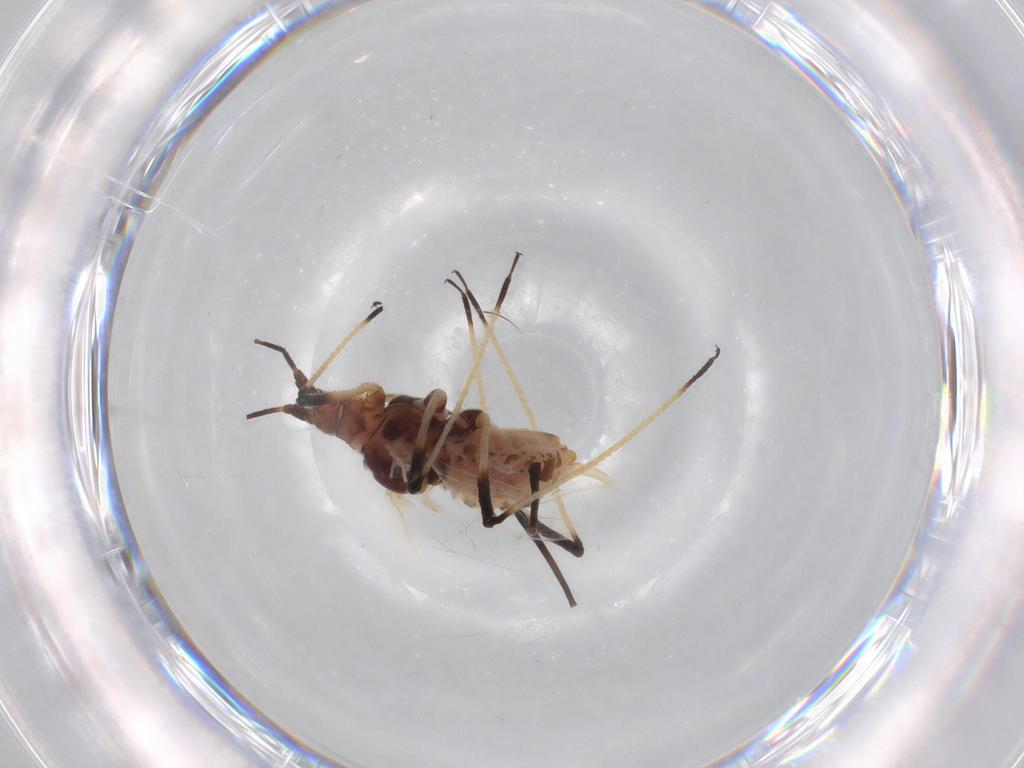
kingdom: Animalia
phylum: Arthropoda
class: Insecta
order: Hemiptera
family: Aphididae
